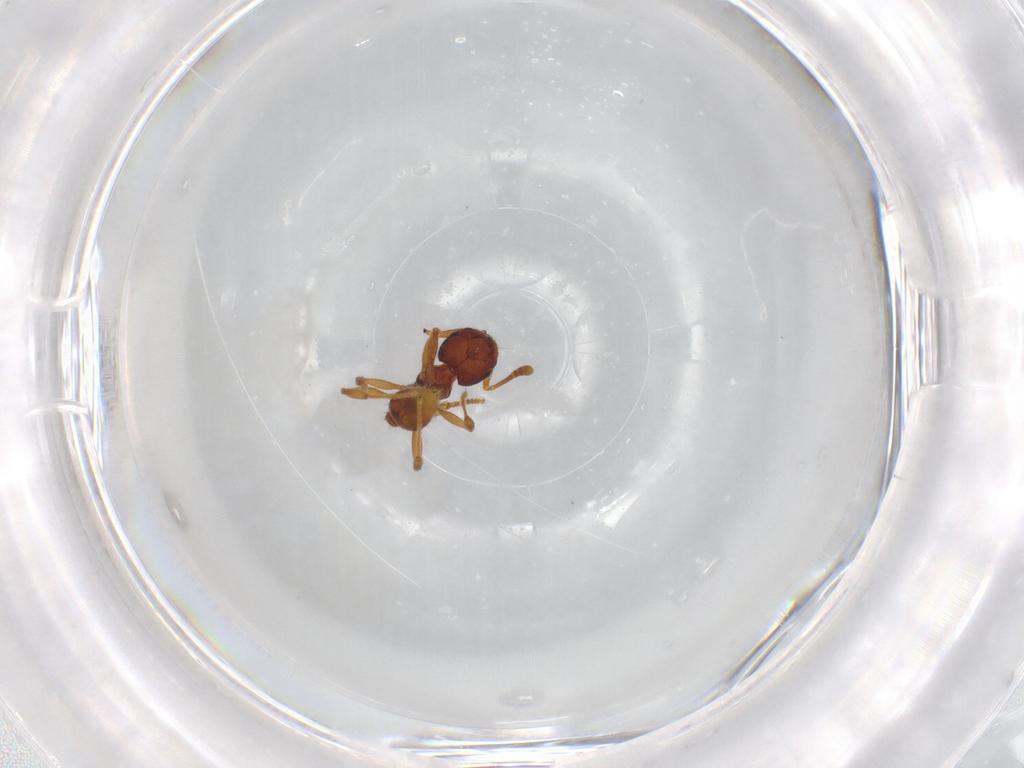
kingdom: Animalia
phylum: Arthropoda
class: Insecta
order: Hymenoptera
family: Formicidae
